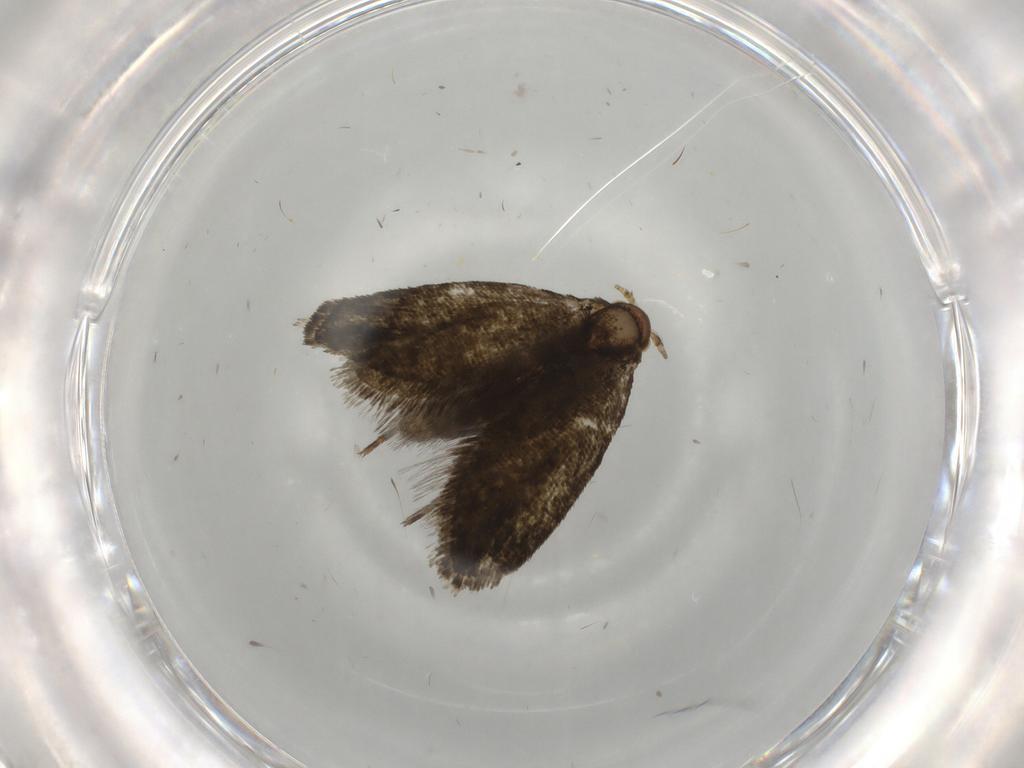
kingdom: Animalia
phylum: Arthropoda
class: Insecta
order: Lepidoptera
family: Tineidae
